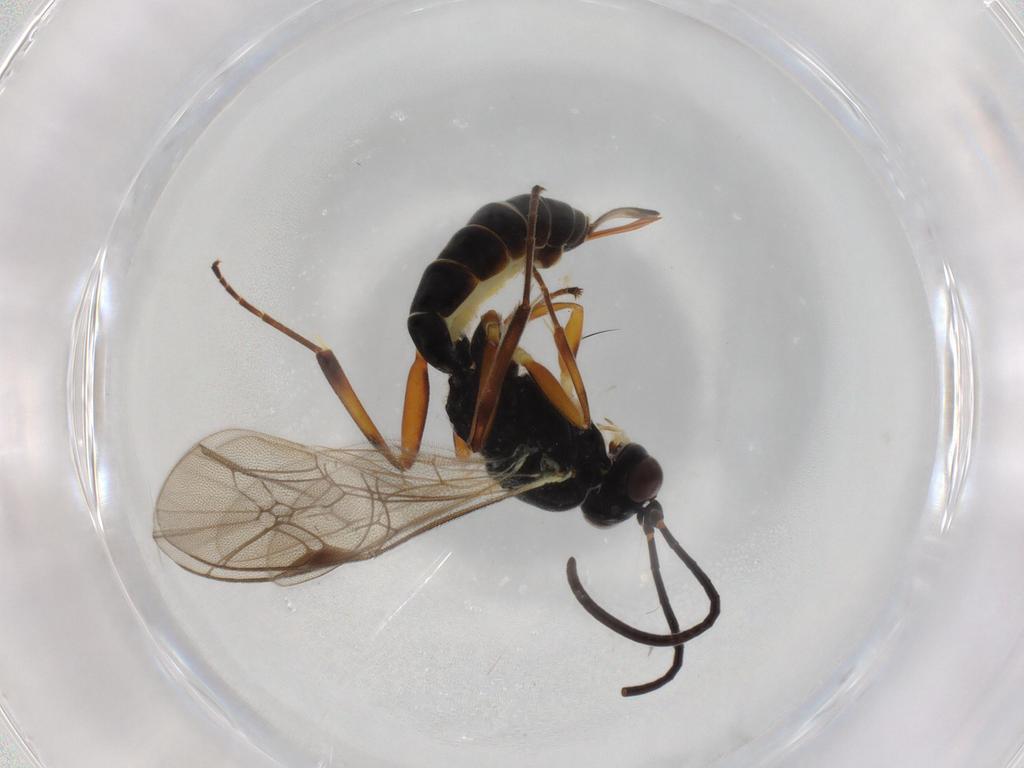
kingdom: Animalia
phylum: Arthropoda
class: Insecta
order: Hymenoptera
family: Ichneumonidae
